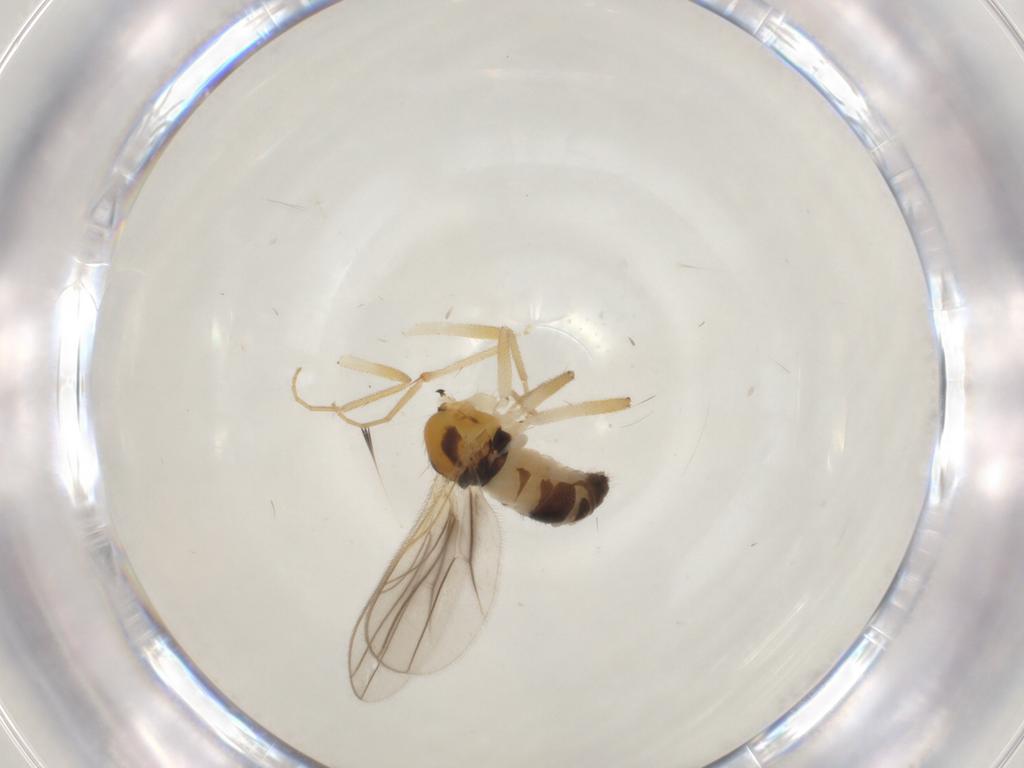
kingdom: Animalia
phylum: Arthropoda
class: Insecta
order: Diptera
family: Hybotidae
